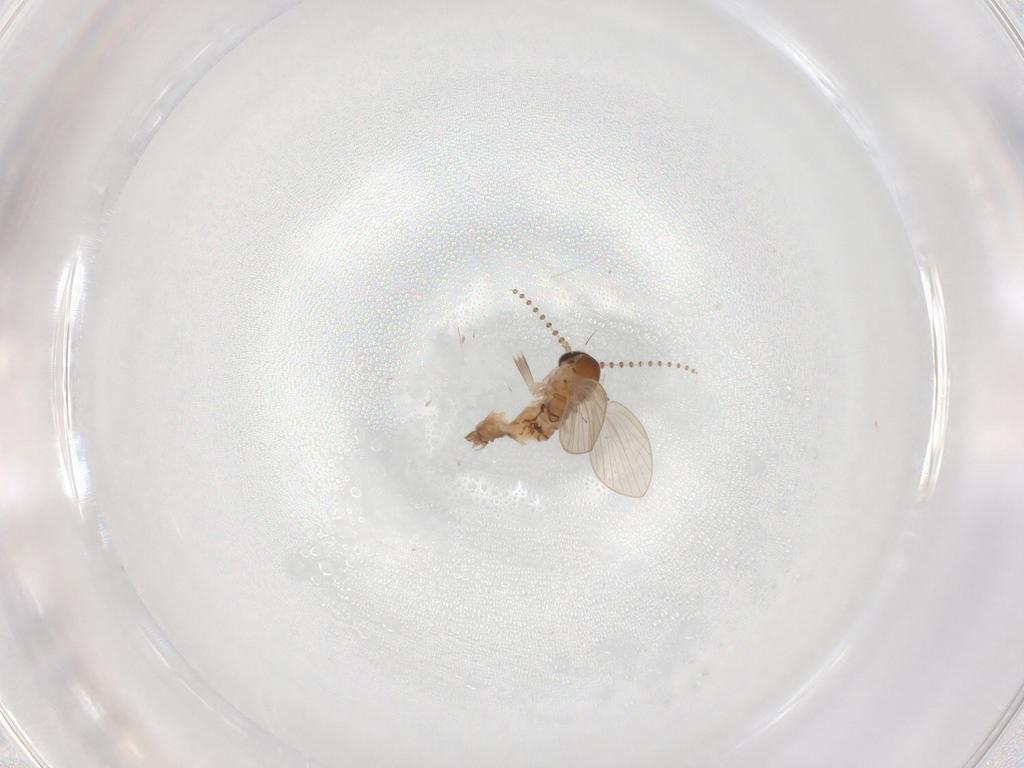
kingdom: Animalia
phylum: Arthropoda
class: Insecta
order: Diptera
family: Psychodidae
